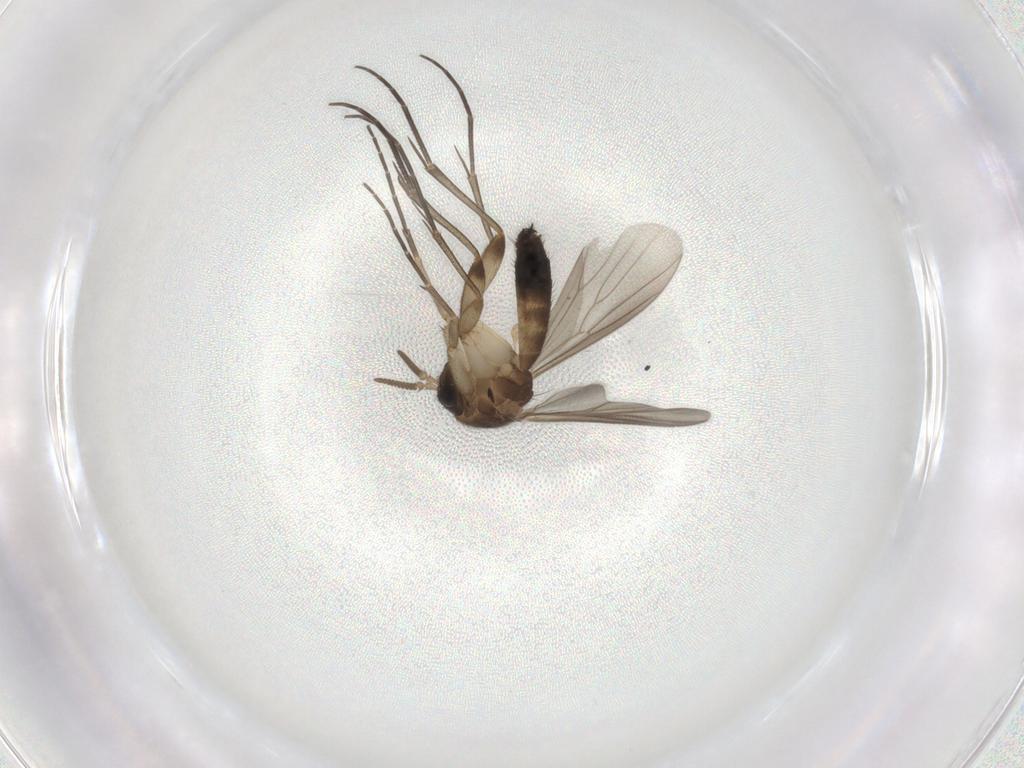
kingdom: Animalia
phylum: Arthropoda
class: Insecta
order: Diptera
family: Mycetophilidae
